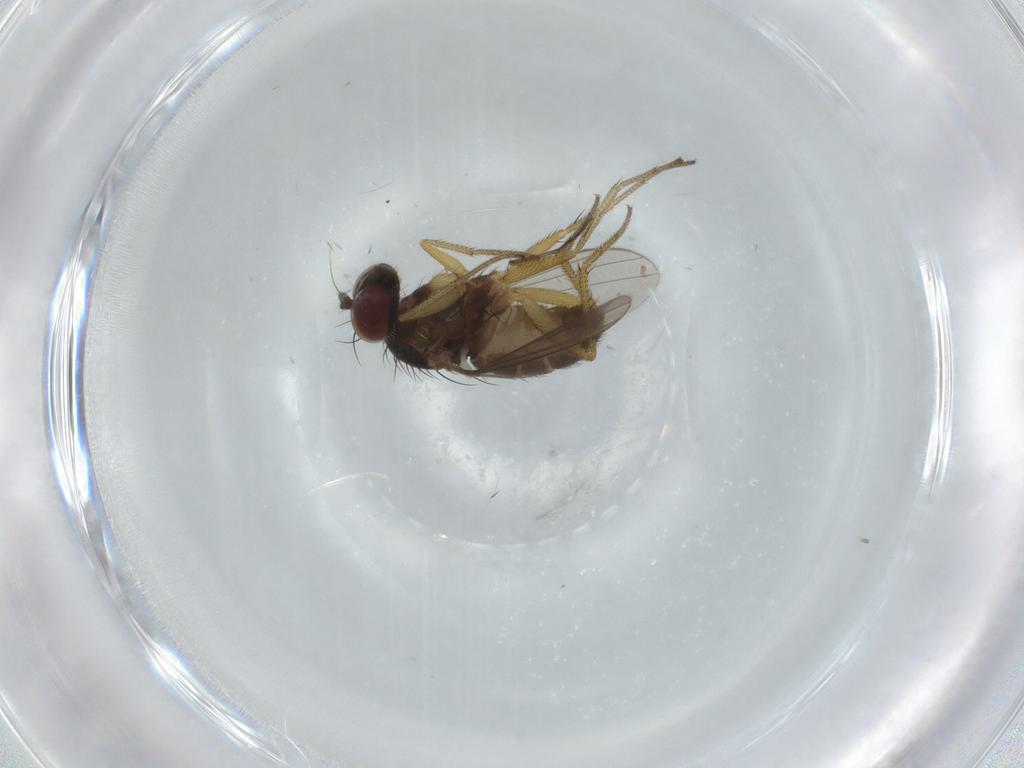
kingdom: Animalia
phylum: Arthropoda
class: Insecta
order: Diptera
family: Dolichopodidae
